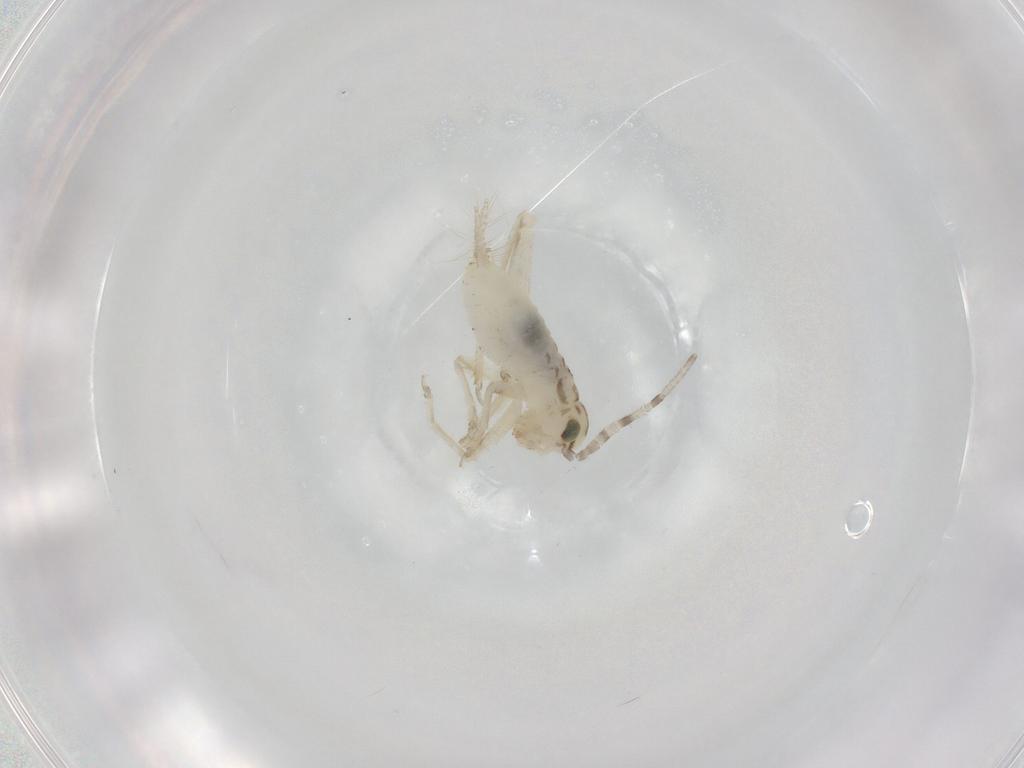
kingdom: Animalia
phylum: Arthropoda
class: Insecta
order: Orthoptera
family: Trigonidiidae
